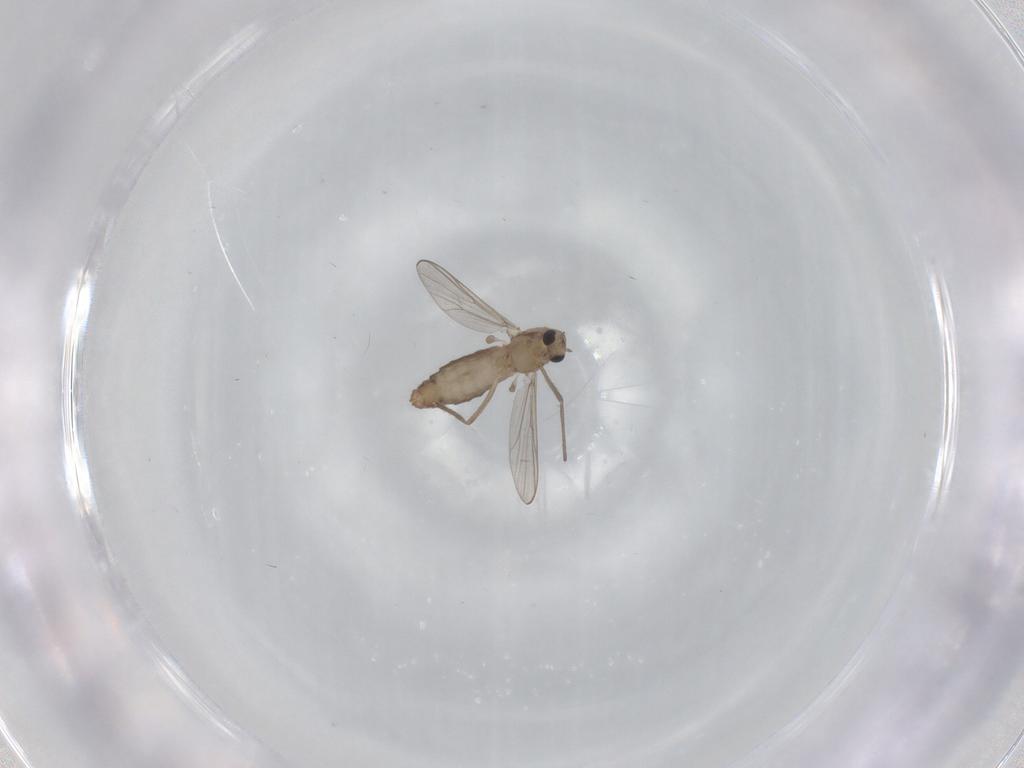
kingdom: Animalia
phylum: Arthropoda
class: Insecta
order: Diptera
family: Chironomidae
